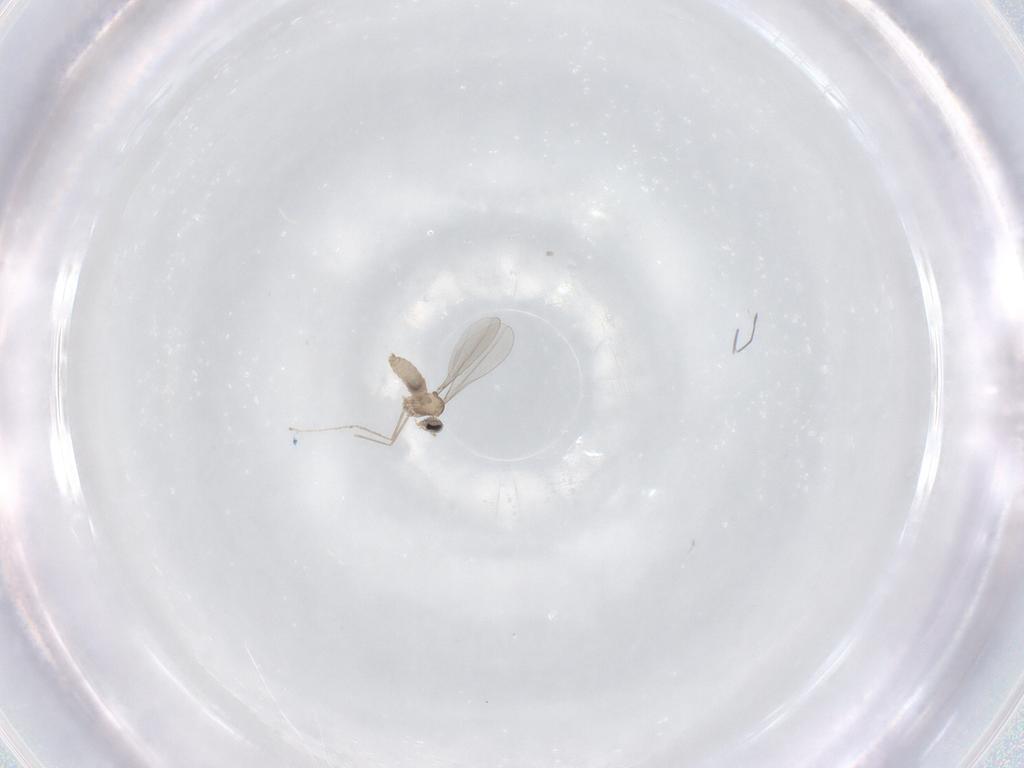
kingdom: Animalia
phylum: Arthropoda
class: Insecta
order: Diptera
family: Cecidomyiidae
